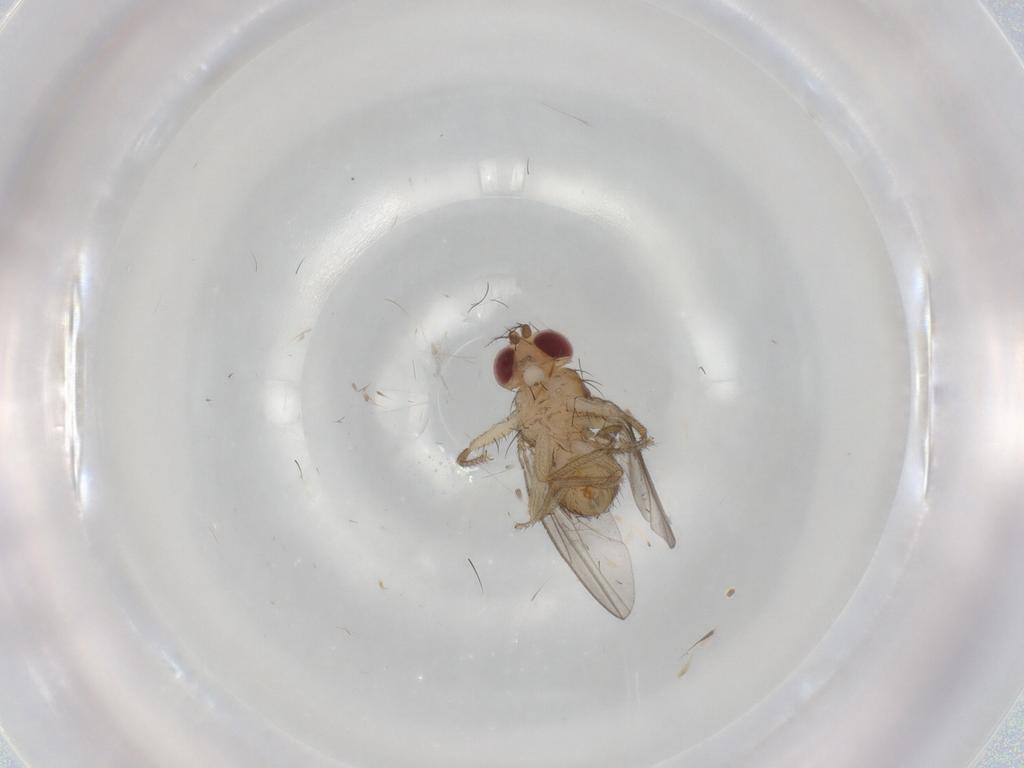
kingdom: Animalia
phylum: Arthropoda
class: Insecta
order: Diptera
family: Drosophilidae
